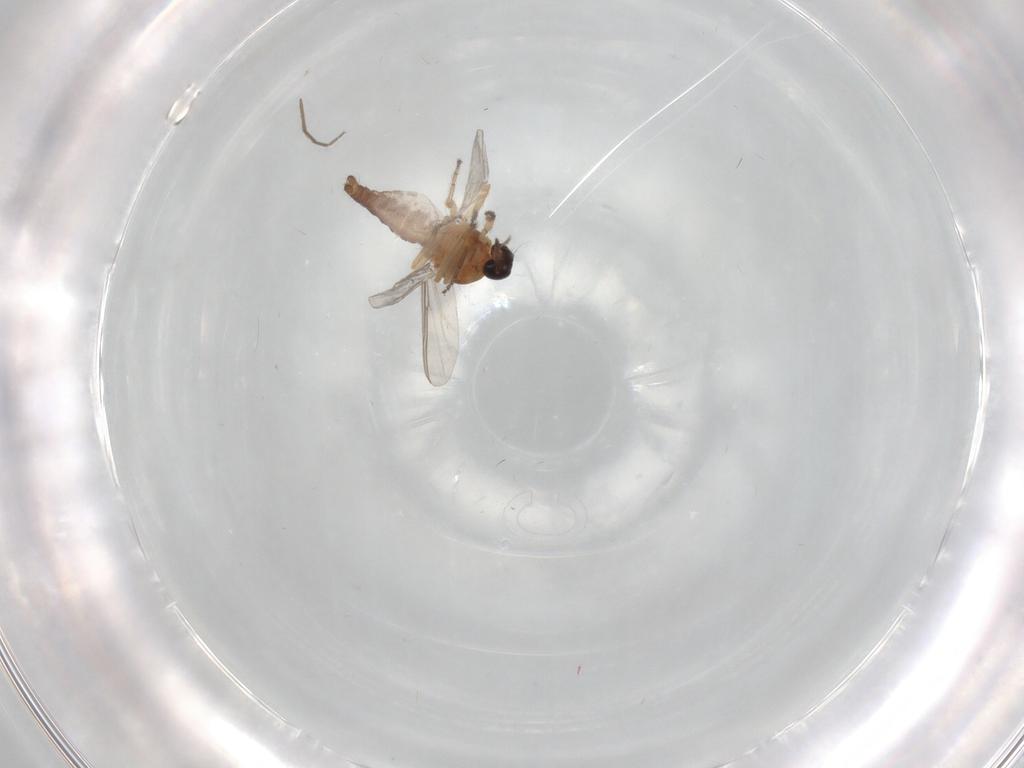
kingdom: Animalia
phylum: Arthropoda
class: Insecta
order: Diptera
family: Ceratopogonidae
